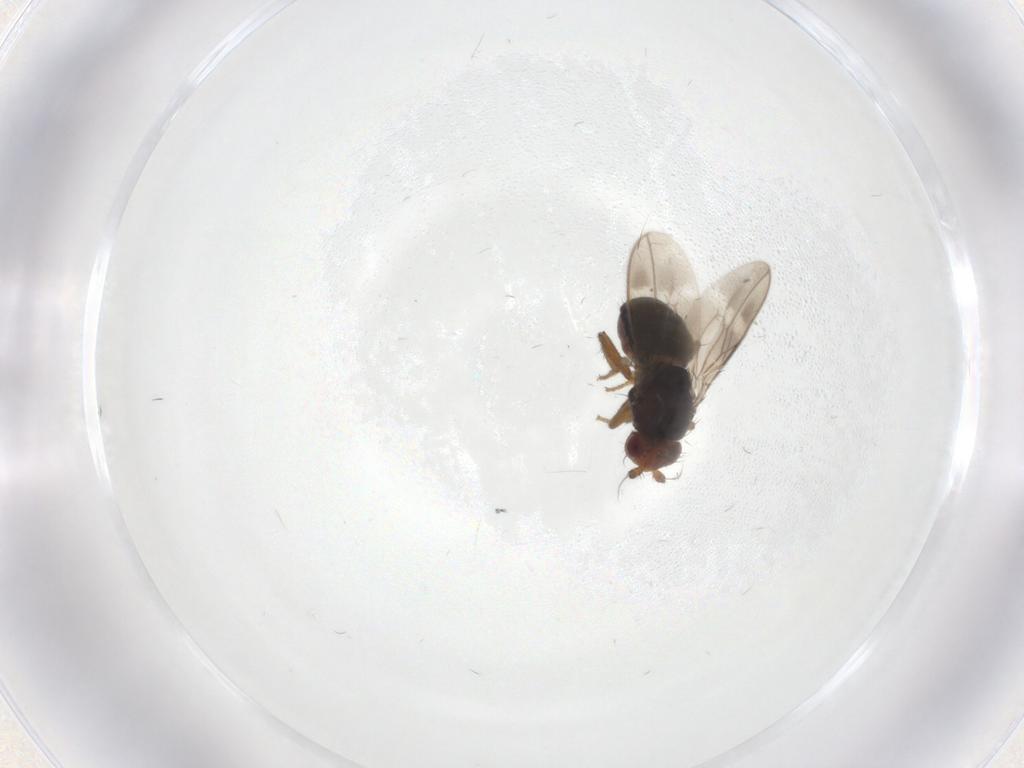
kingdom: Animalia
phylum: Arthropoda
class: Insecta
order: Diptera
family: Sphaeroceridae
